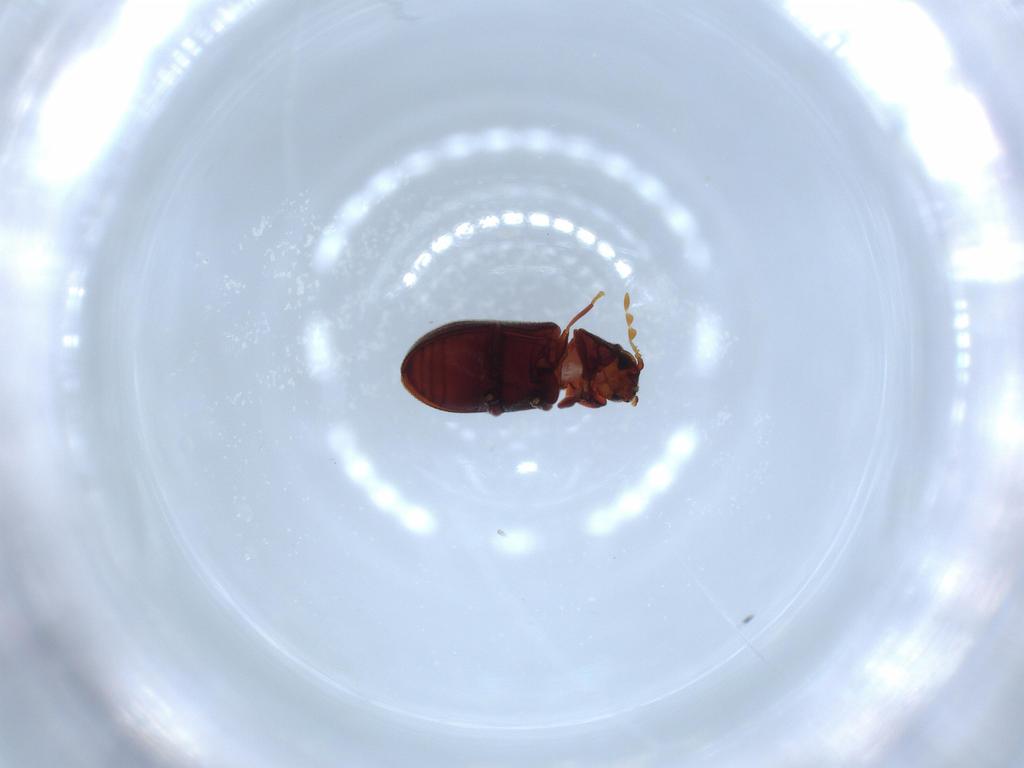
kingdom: Animalia
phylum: Arthropoda
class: Insecta
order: Coleoptera
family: Anobiidae
